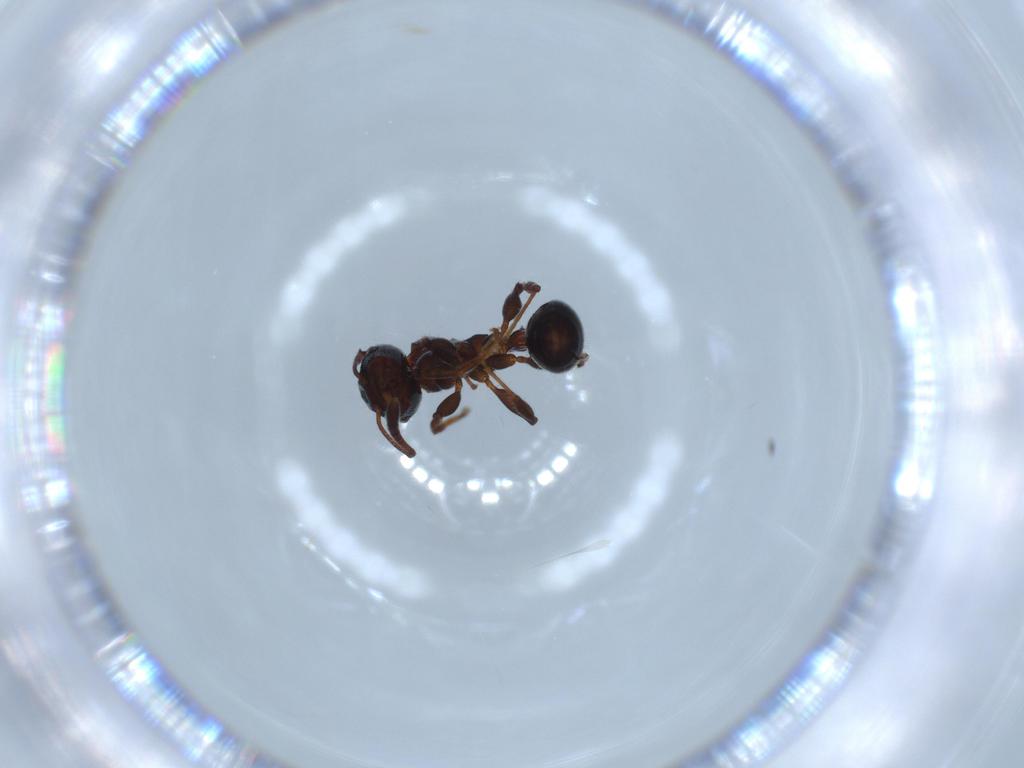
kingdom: Animalia
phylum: Arthropoda
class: Insecta
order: Hymenoptera
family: Formicidae
